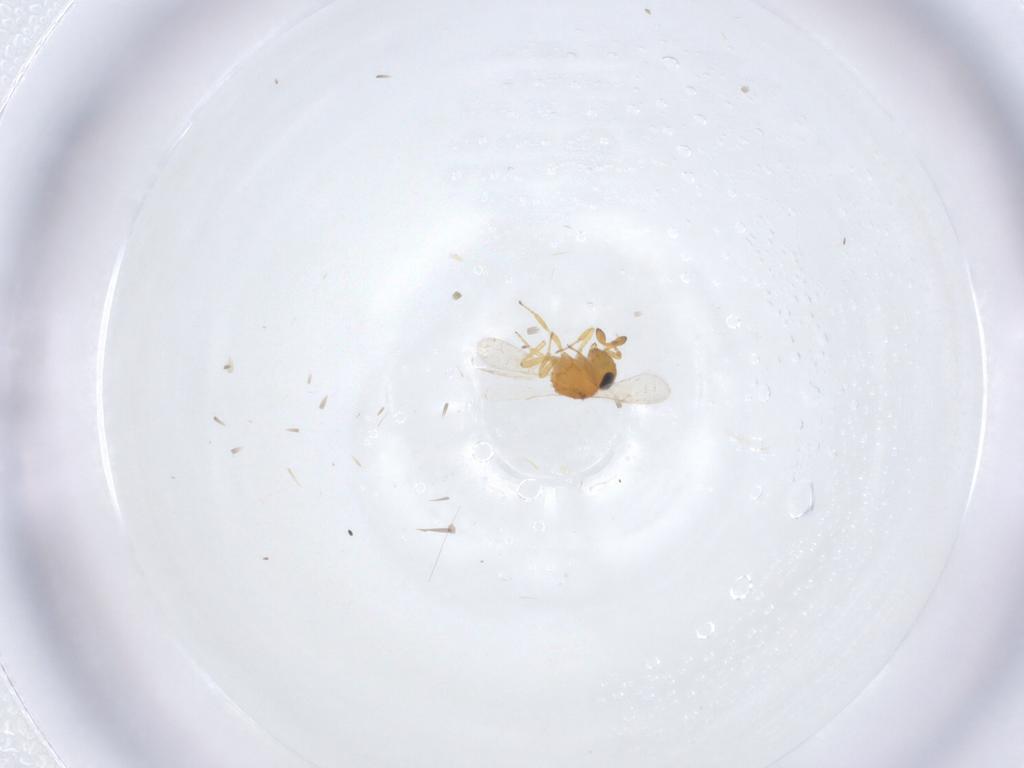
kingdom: Animalia
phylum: Arthropoda
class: Insecta
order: Hymenoptera
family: Scelionidae
